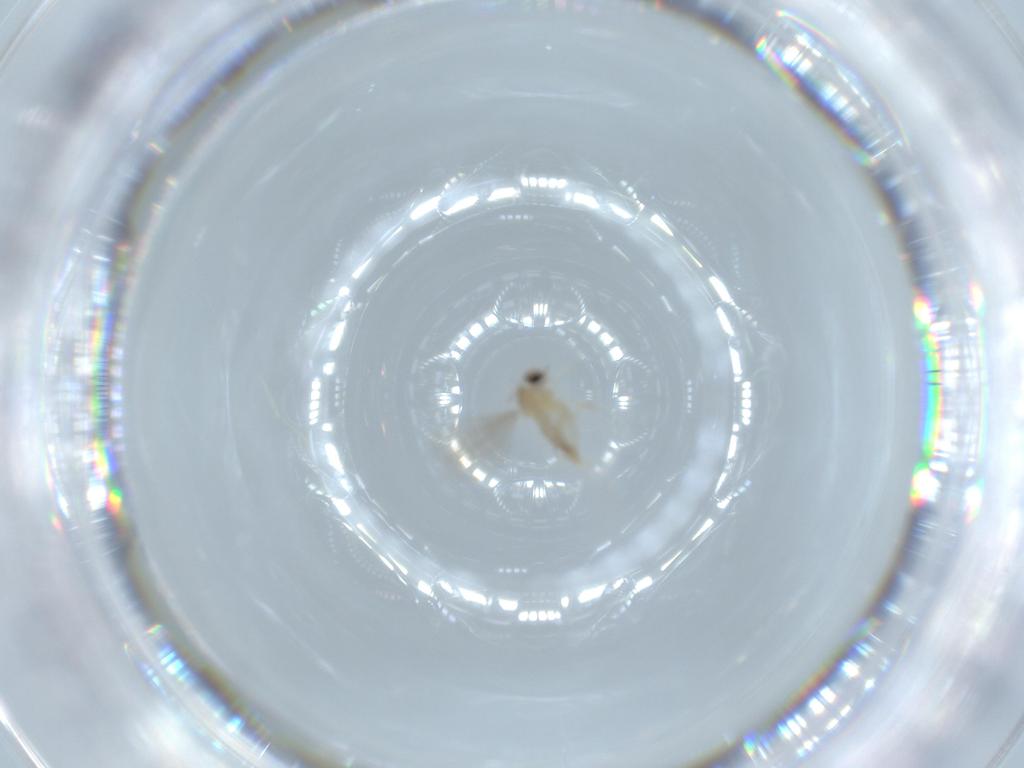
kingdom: Animalia
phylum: Arthropoda
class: Insecta
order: Diptera
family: Cecidomyiidae
